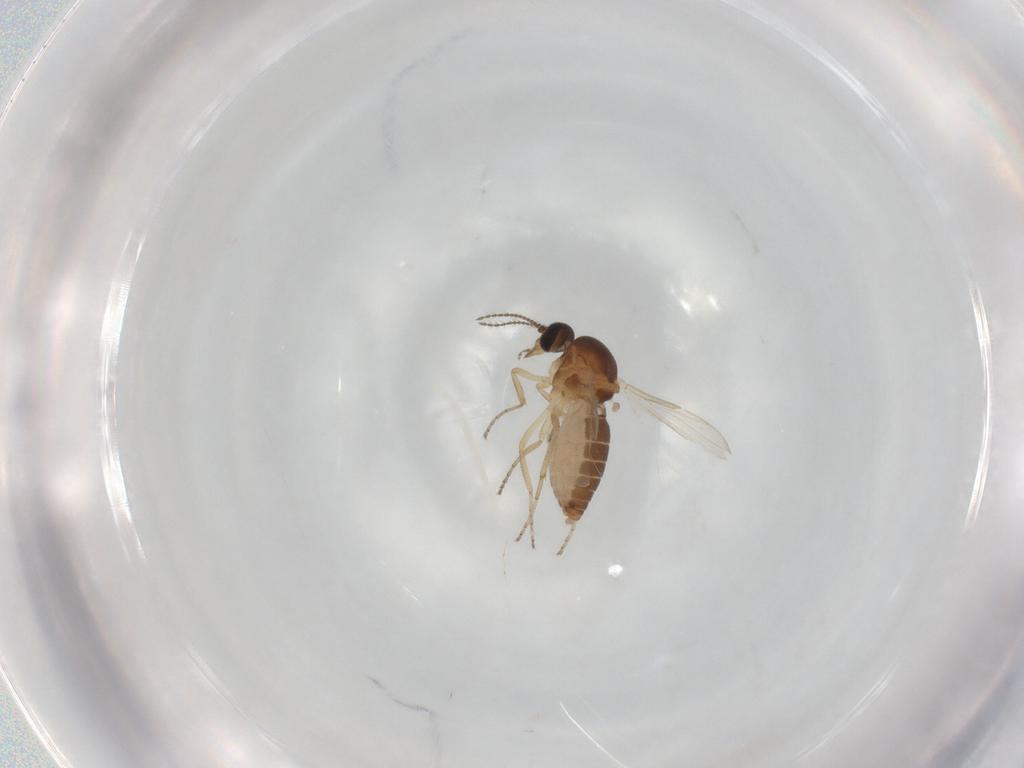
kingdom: Animalia
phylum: Arthropoda
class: Insecta
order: Diptera
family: Ceratopogonidae
